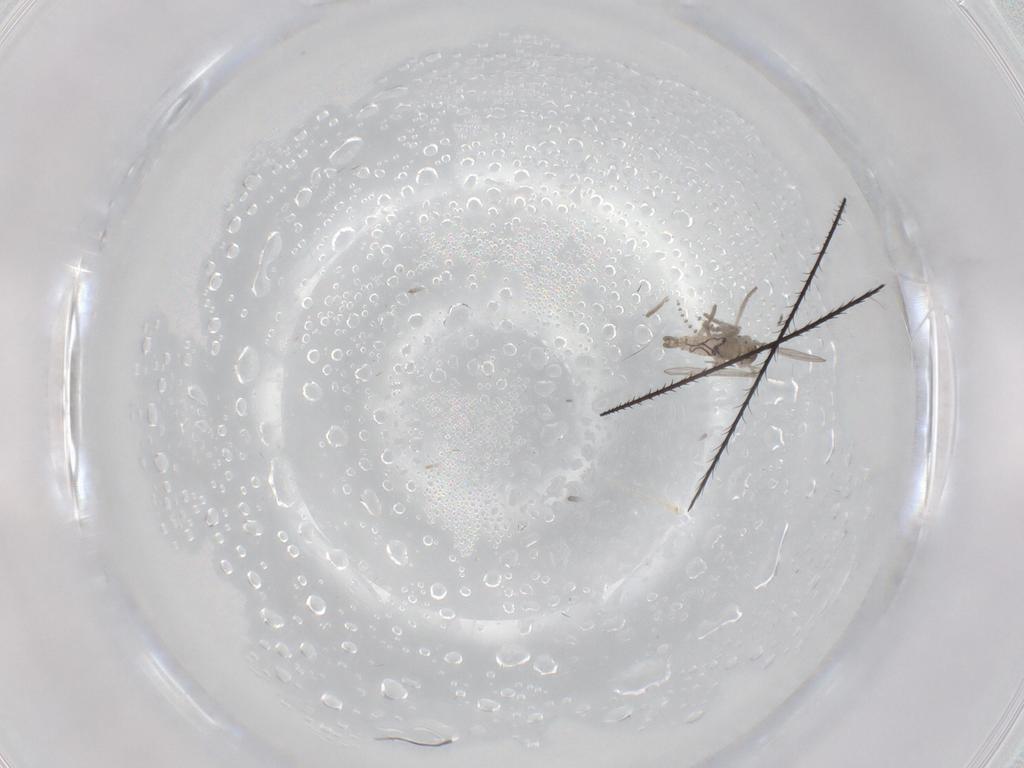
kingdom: Animalia
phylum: Arthropoda
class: Insecta
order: Diptera
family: Cecidomyiidae
